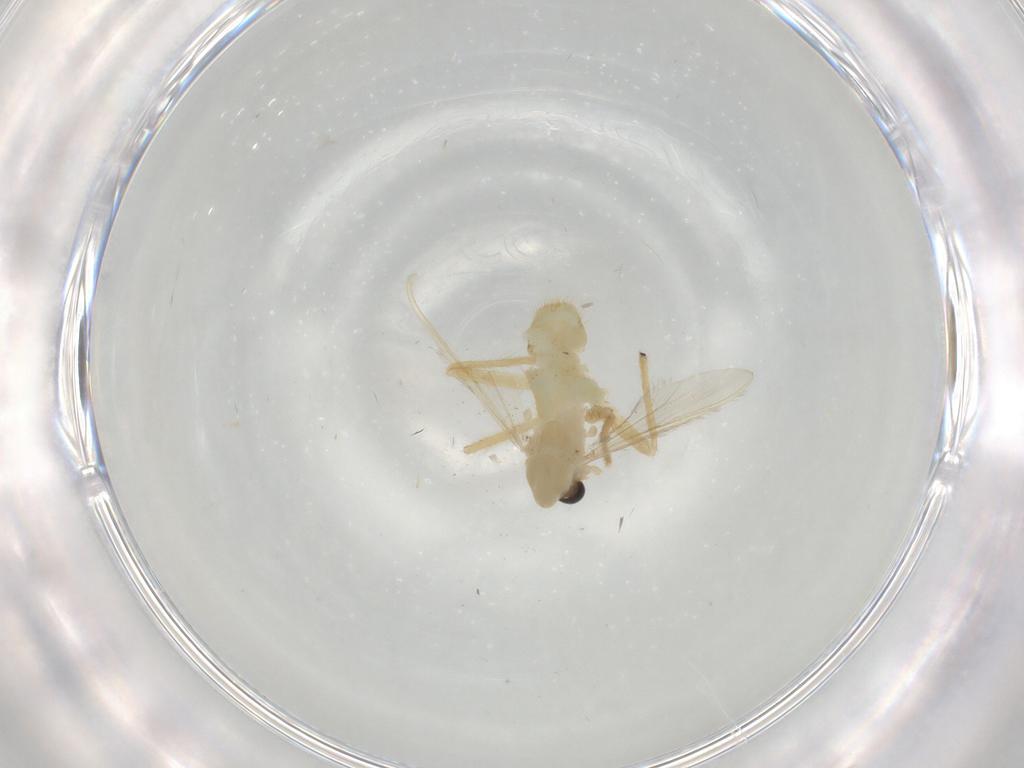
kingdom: Animalia
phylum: Arthropoda
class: Insecta
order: Diptera
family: Chironomidae
